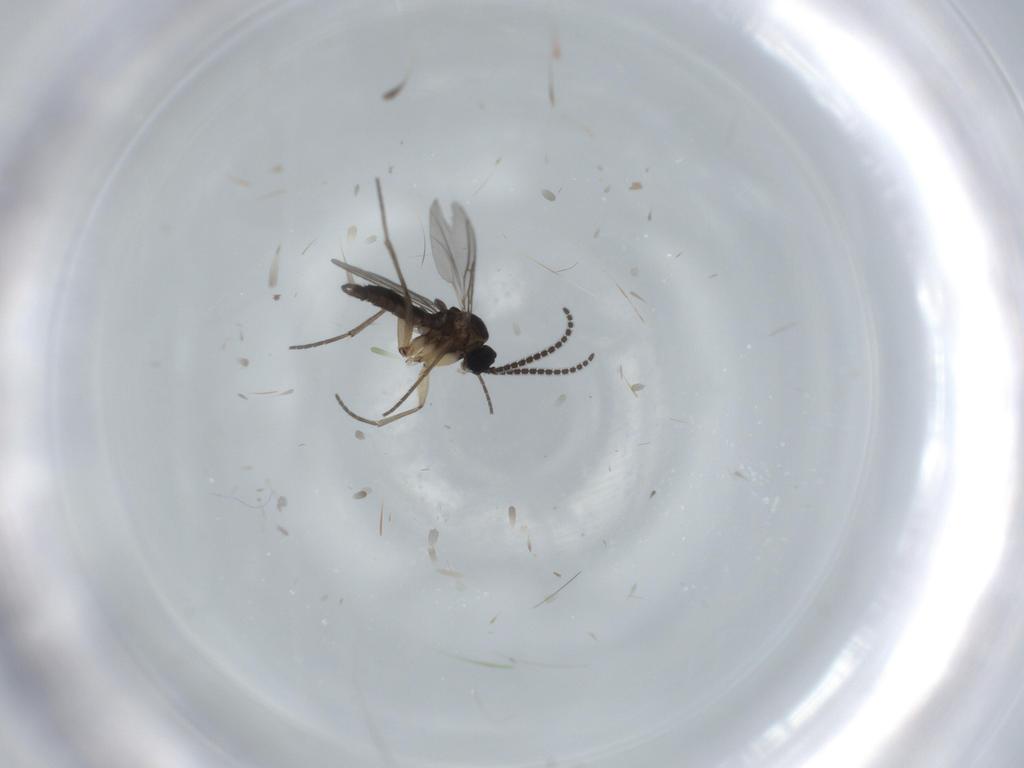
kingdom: Animalia
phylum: Arthropoda
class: Insecta
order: Diptera
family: Sciaridae
